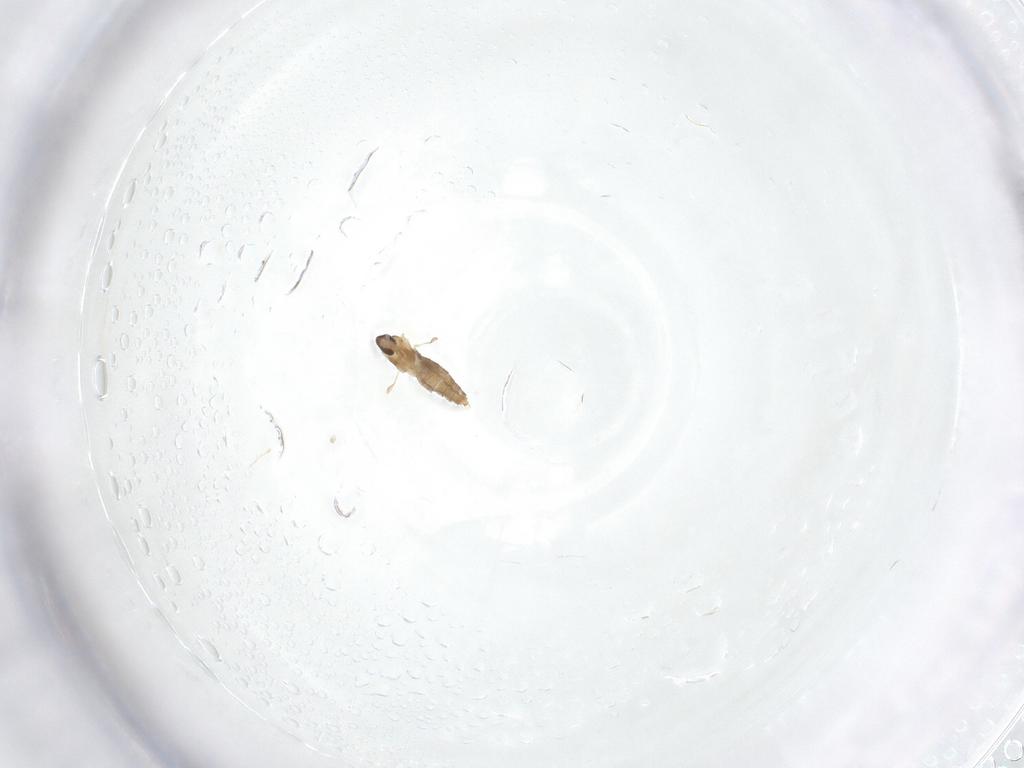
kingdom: Animalia
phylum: Arthropoda
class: Insecta
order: Diptera
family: Cecidomyiidae
